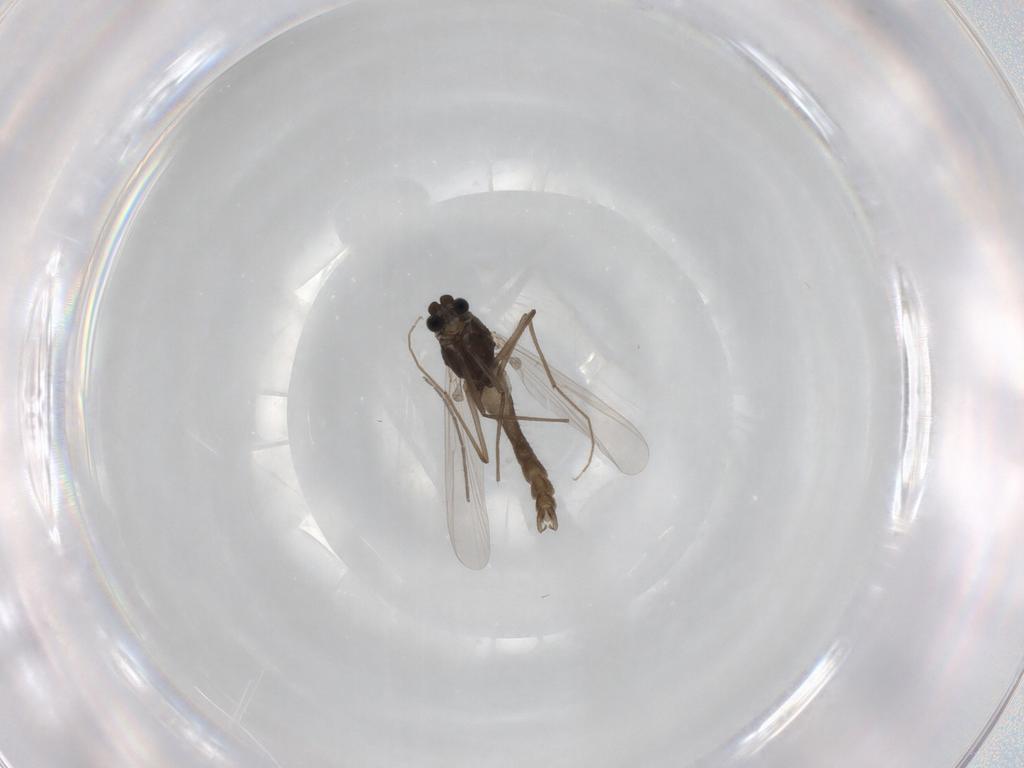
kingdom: Animalia
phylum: Arthropoda
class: Insecta
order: Diptera
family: Chironomidae
